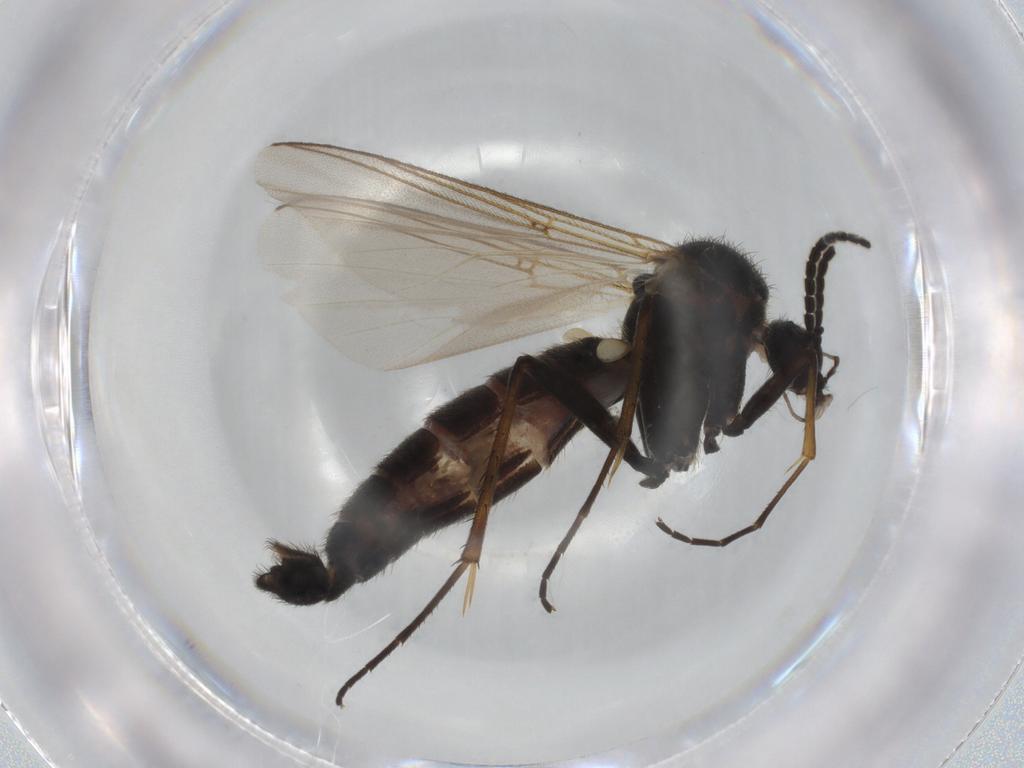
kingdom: Animalia
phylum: Arthropoda
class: Insecta
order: Diptera
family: Muscidae
